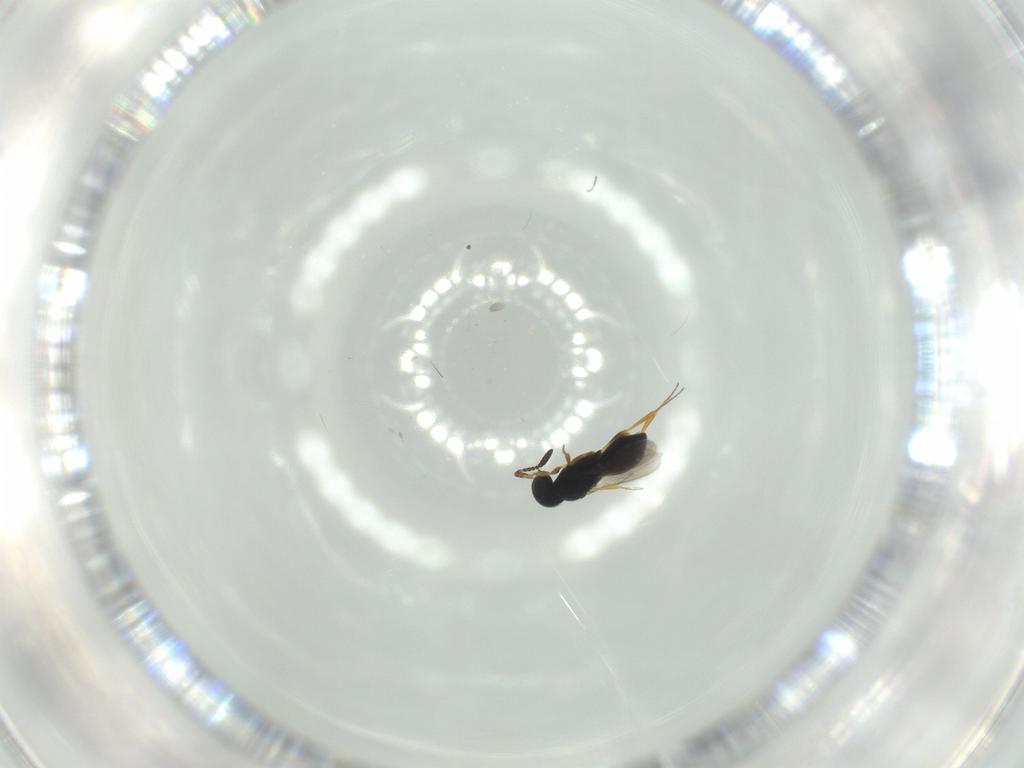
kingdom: Animalia
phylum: Arthropoda
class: Insecta
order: Hymenoptera
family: Scelionidae
